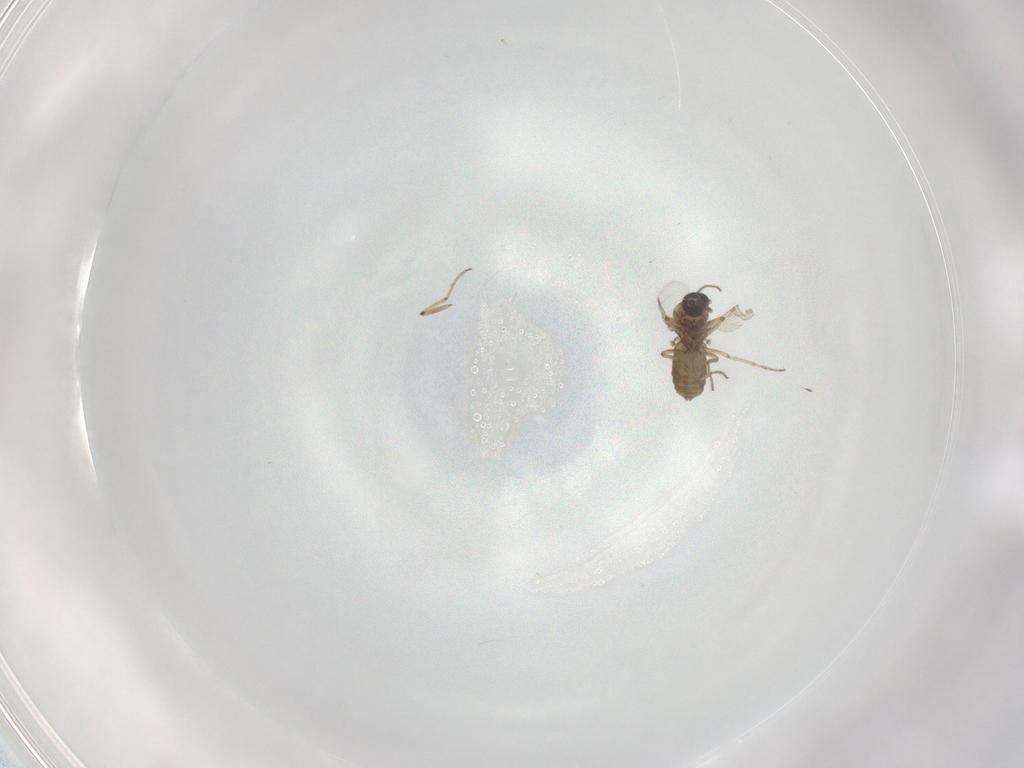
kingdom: Animalia
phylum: Arthropoda
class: Insecta
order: Diptera
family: Ceratopogonidae
